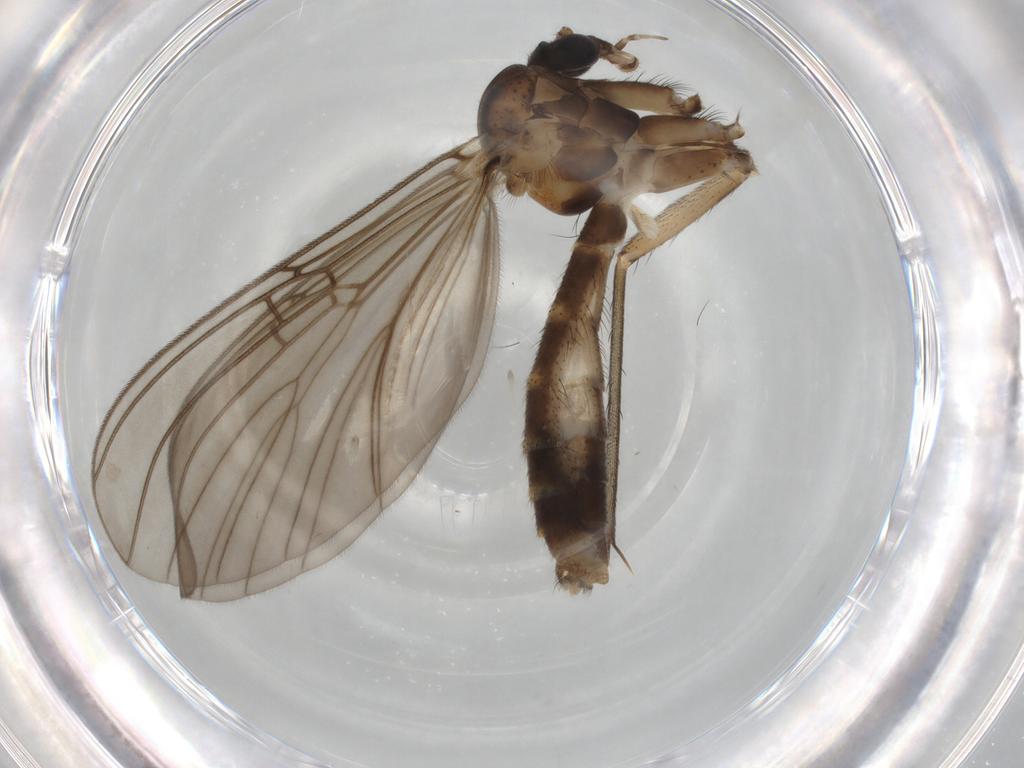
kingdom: Animalia
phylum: Arthropoda
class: Insecta
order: Diptera
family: Mycetophilidae
